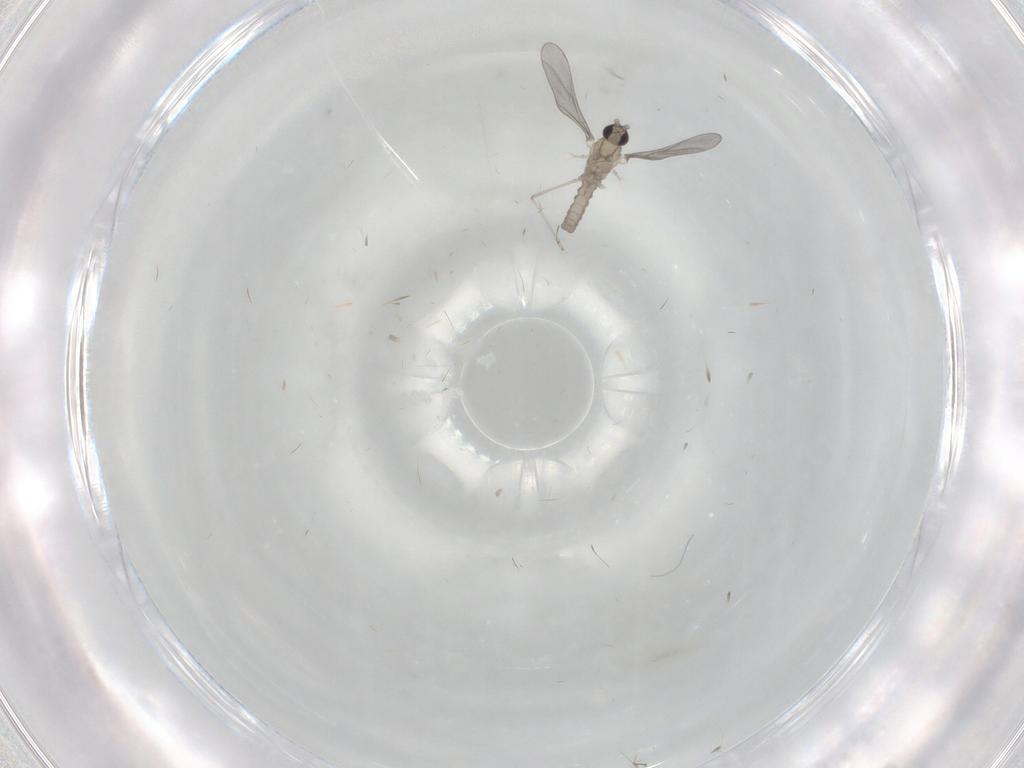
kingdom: Animalia
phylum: Arthropoda
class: Insecta
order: Diptera
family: Cecidomyiidae
